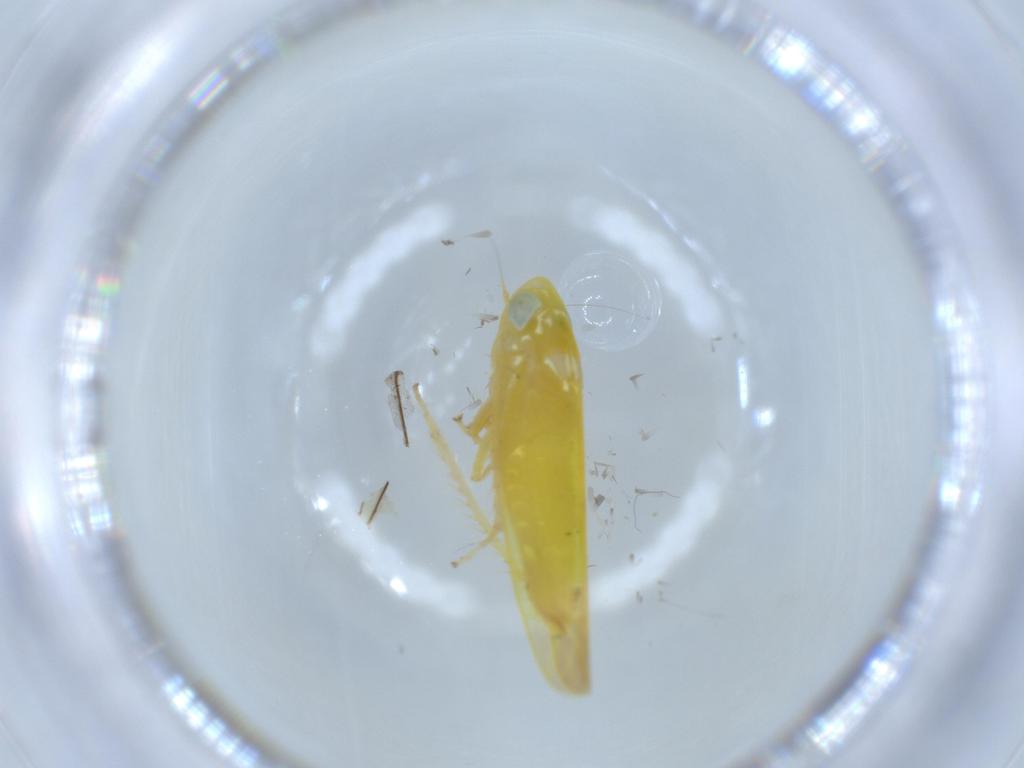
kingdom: Animalia
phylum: Arthropoda
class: Insecta
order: Hemiptera
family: Cicadellidae
